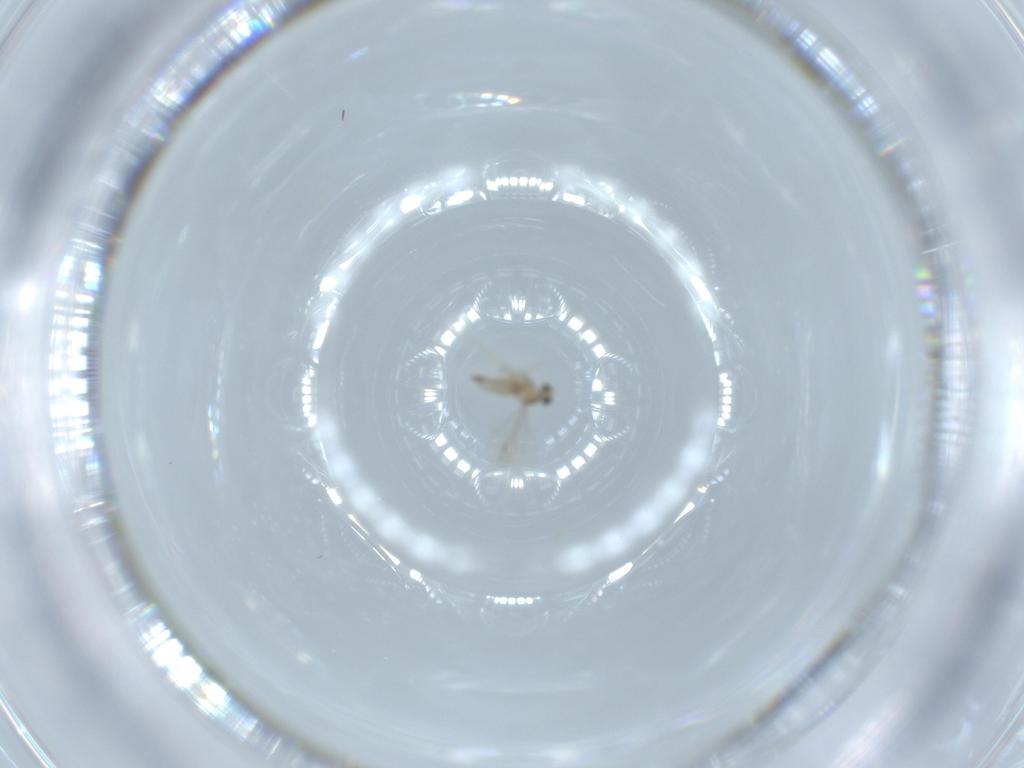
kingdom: Animalia
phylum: Arthropoda
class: Insecta
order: Diptera
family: Cecidomyiidae
